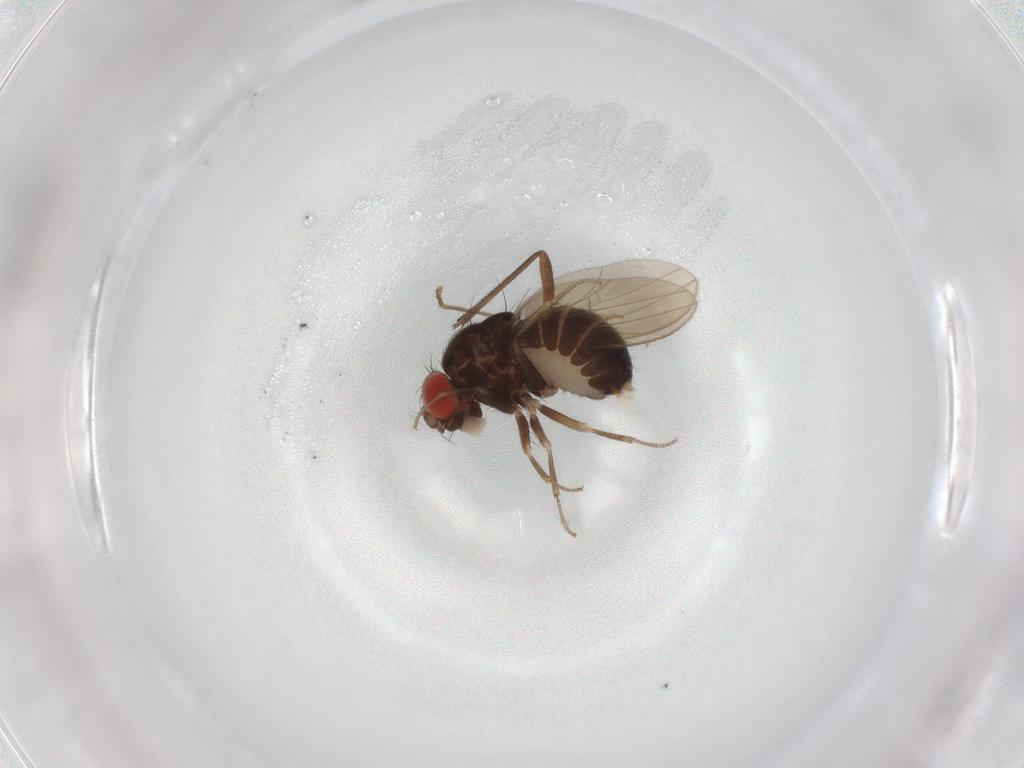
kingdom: Animalia
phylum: Arthropoda
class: Insecta
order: Diptera
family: Drosophilidae
